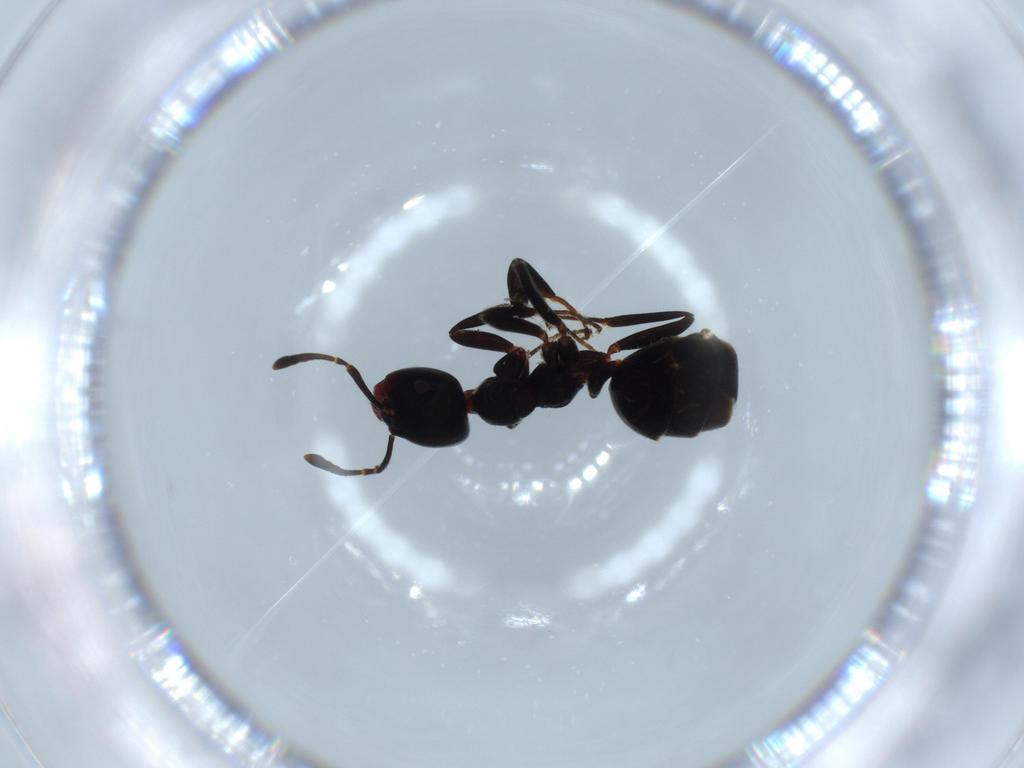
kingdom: Animalia
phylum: Arthropoda
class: Insecta
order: Hymenoptera
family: Formicidae
